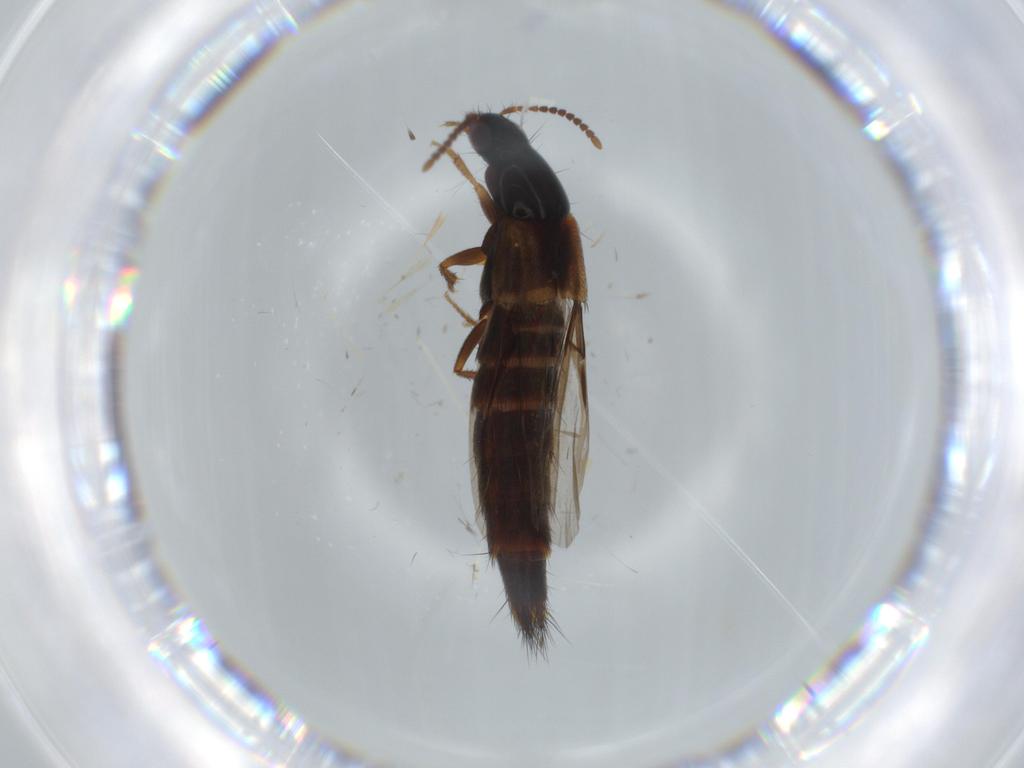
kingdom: Animalia
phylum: Arthropoda
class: Insecta
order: Coleoptera
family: Staphylinidae
